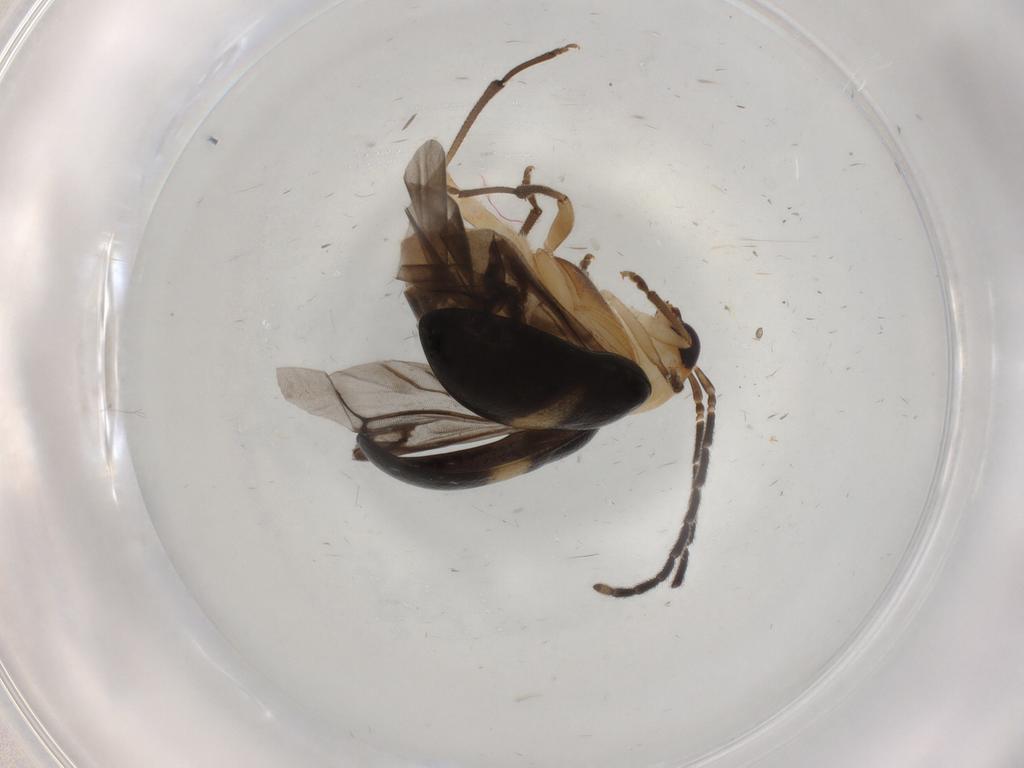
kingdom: Animalia
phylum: Arthropoda
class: Insecta
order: Coleoptera
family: Chrysomelidae
